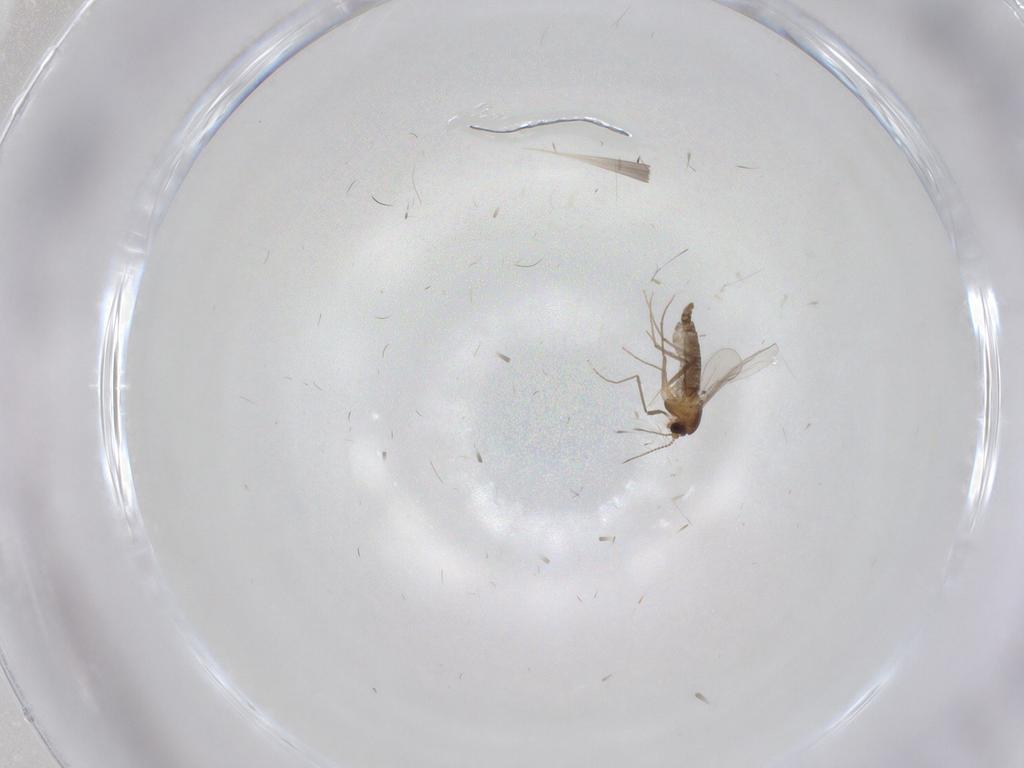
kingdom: Animalia
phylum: Arthropoda
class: Insecta
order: Diptera
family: Chironomidae
